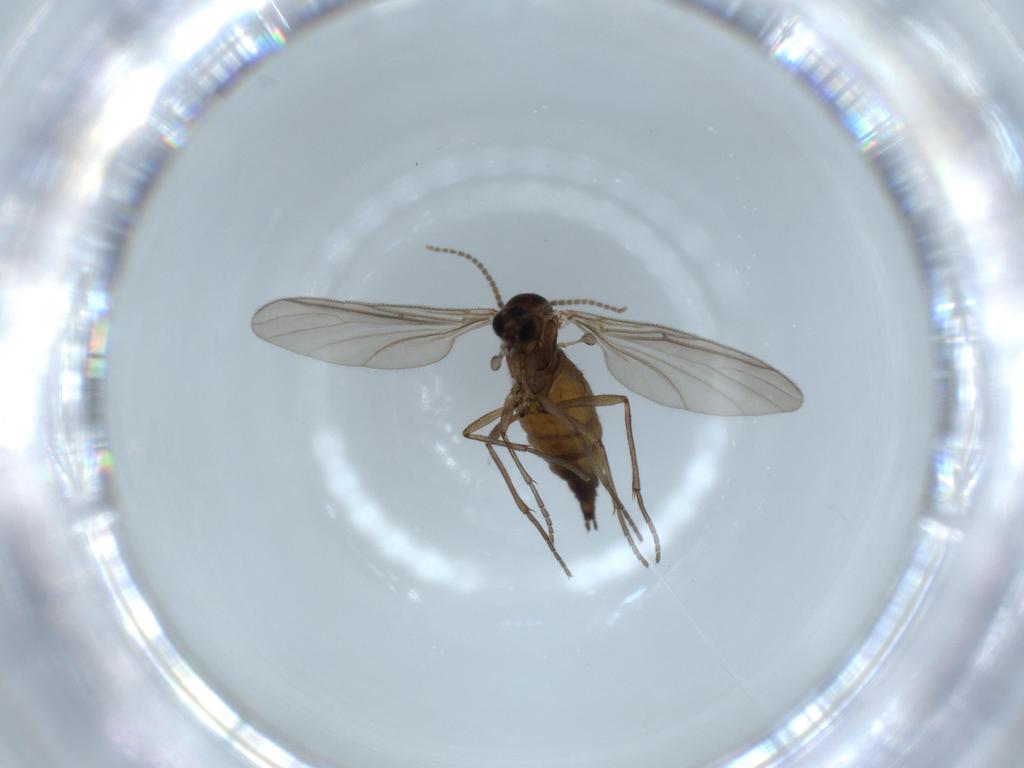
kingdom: Animalia
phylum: Arthropoda
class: Insecta
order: Diptera
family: Sciaridae
